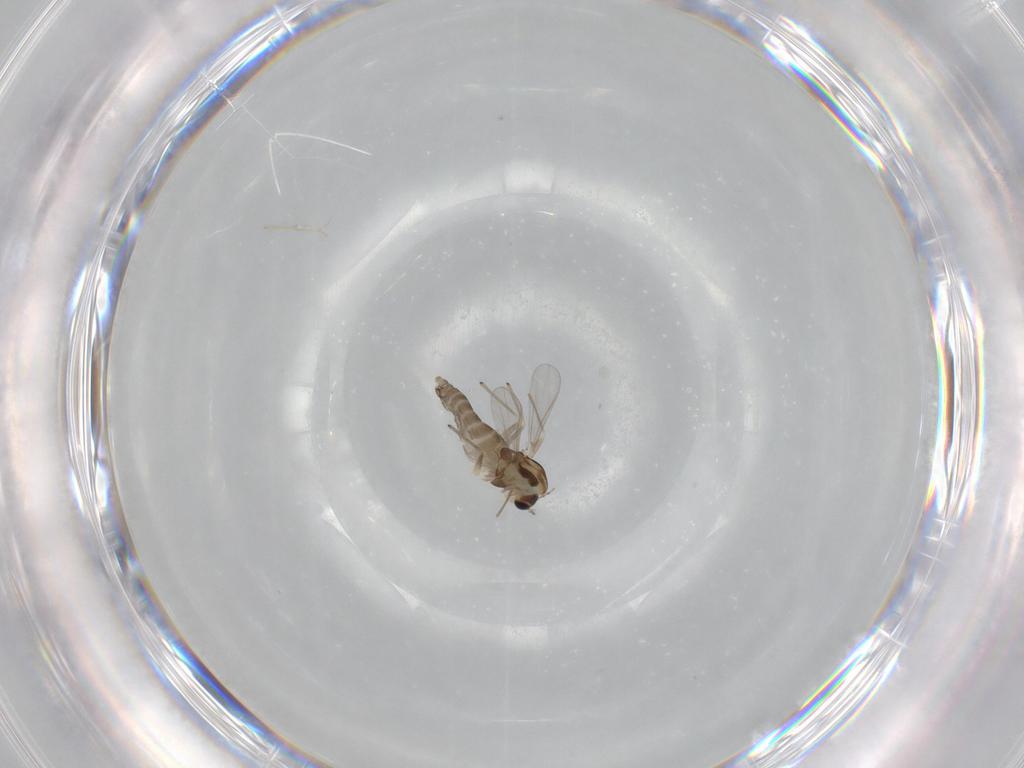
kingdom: Animalia
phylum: Arthropoda
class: Insecta
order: Diptera
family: Chironomidae
